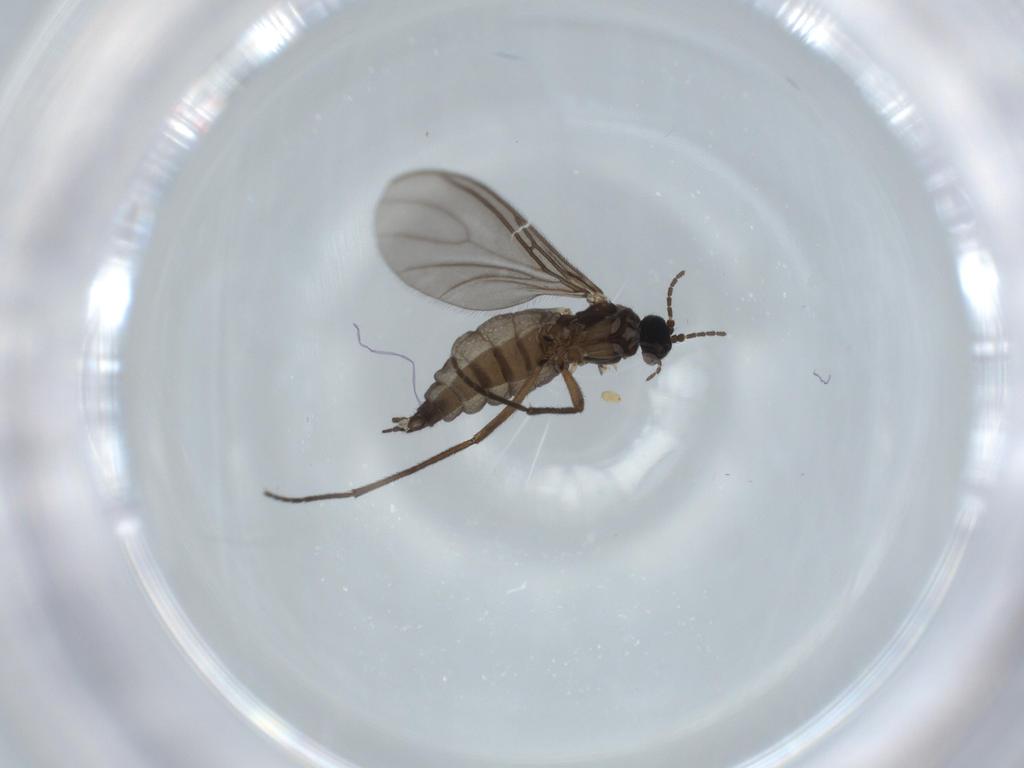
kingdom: Animalia
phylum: Arthropoda
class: Insecta
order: Diptera
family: Sciaridae
